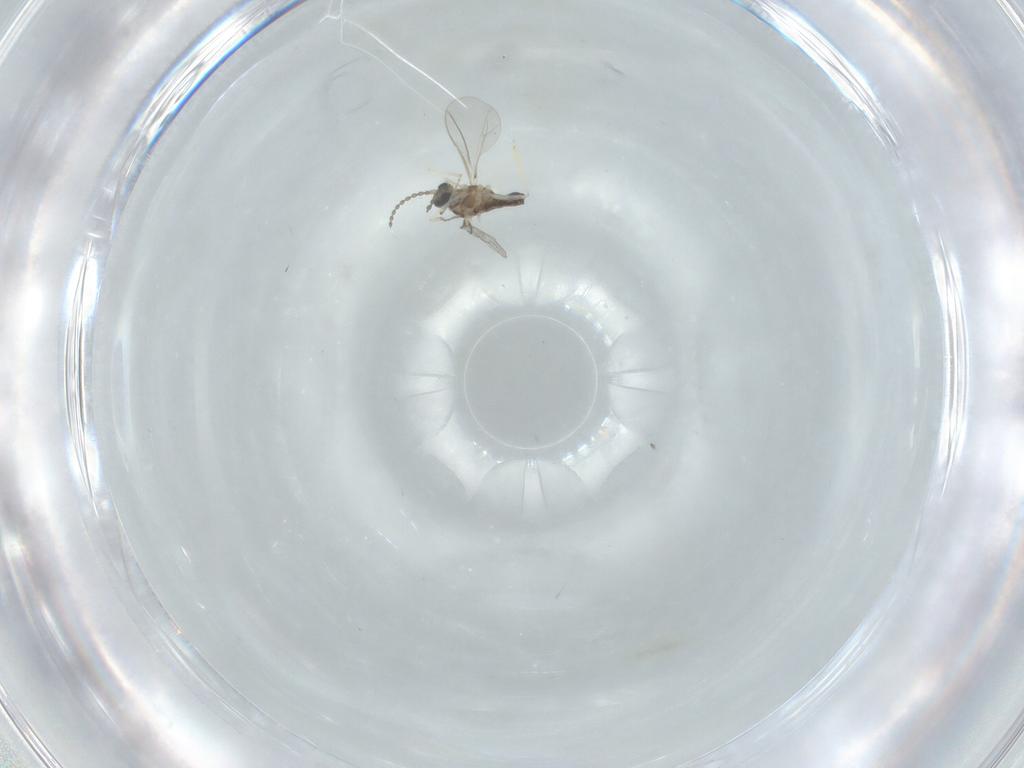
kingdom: Animalia
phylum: Arthropoda
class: Insecta
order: Diptera
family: Cecidomyiidae
